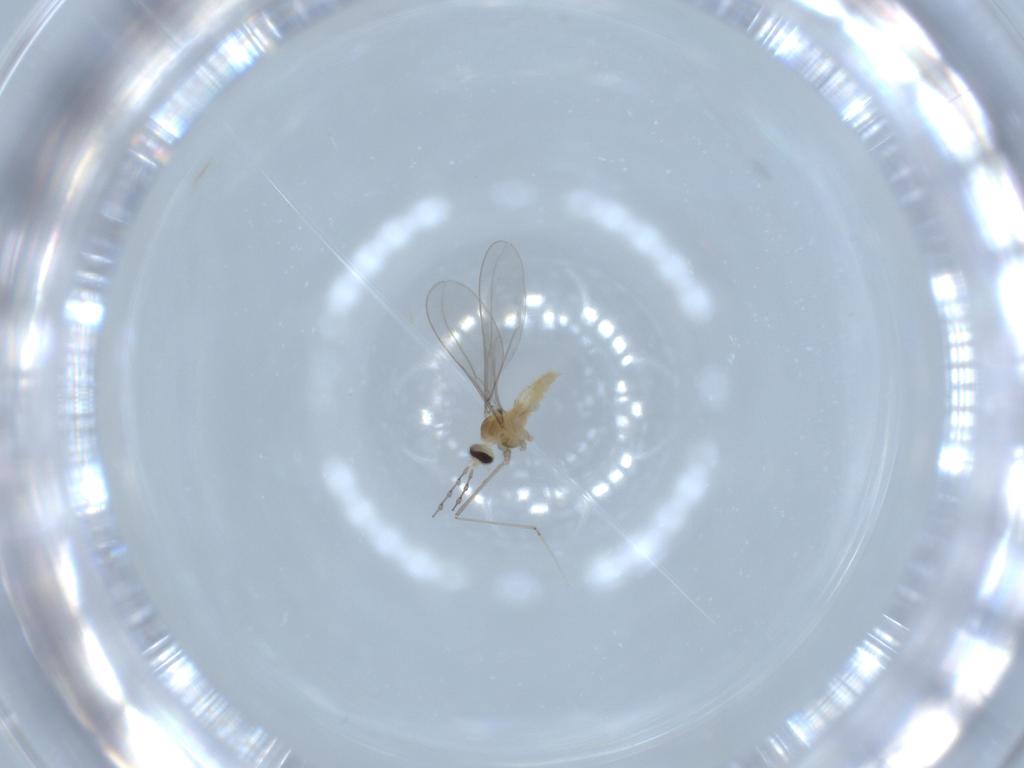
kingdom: Animalia
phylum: Arthropoda
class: Insecta
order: Diptera
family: Cecidomyiidae
